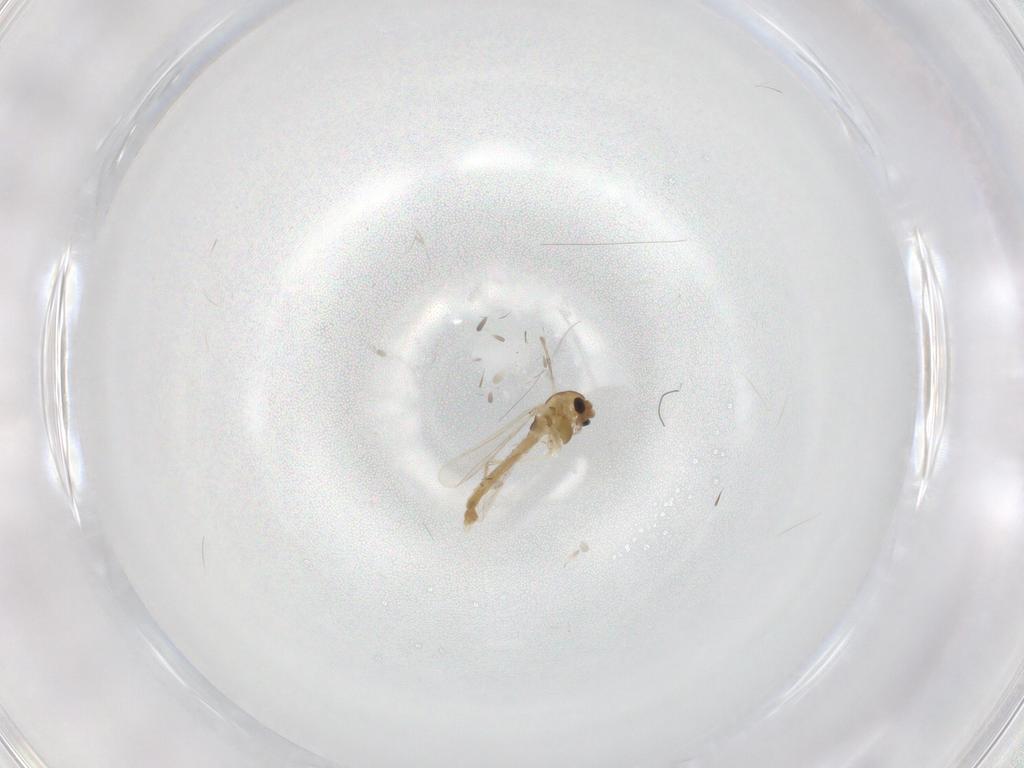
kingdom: Animalia
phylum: Arthropoda
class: Insecta
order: Diptera
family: Chironomidae
